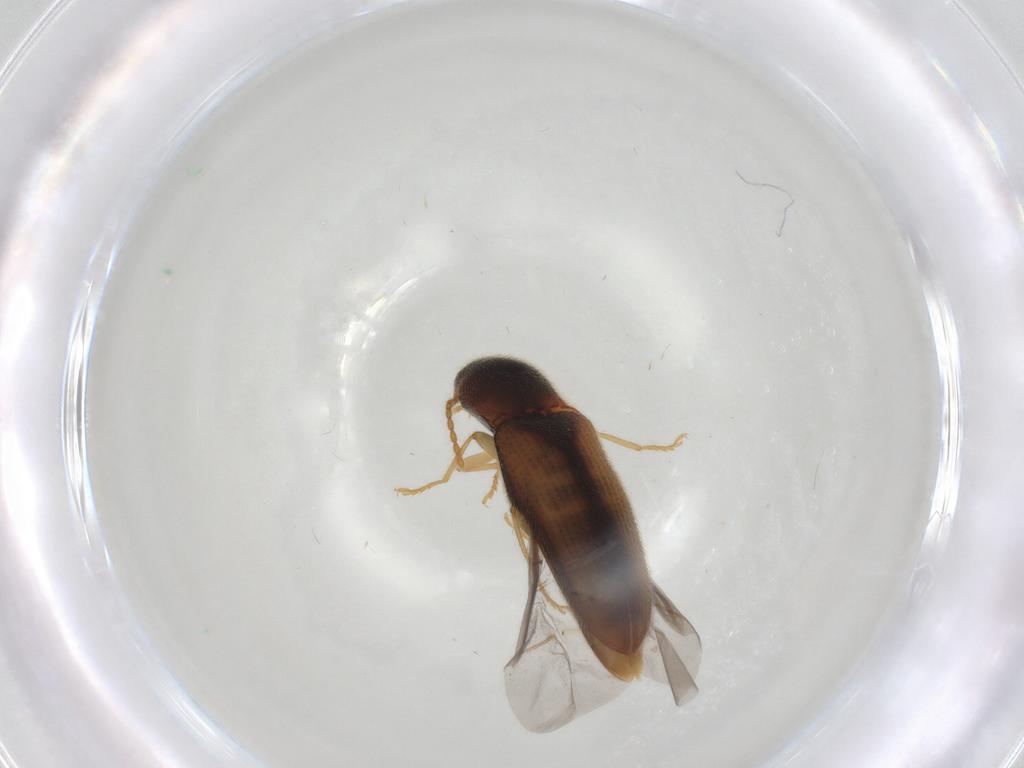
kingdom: Animalia
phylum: Arthropoda
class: Insecta
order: Coleoptera
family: Elateridae
